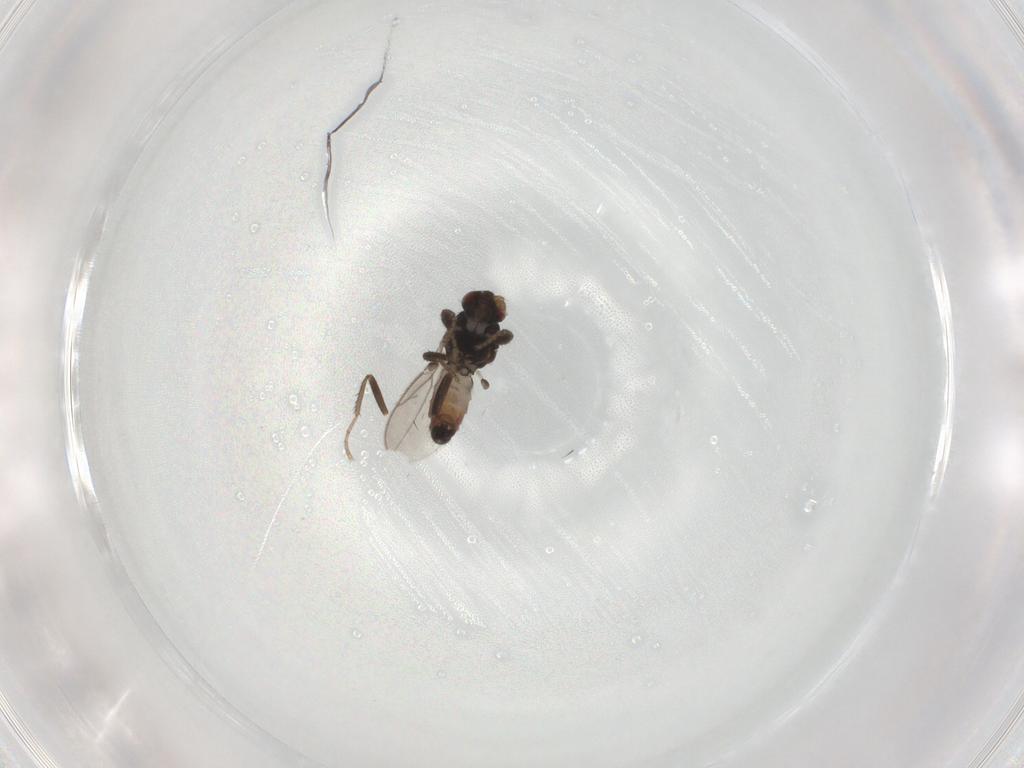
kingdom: Animalia
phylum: Arthropoda
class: Insecta
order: Diptera
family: Sphaeroceridae
